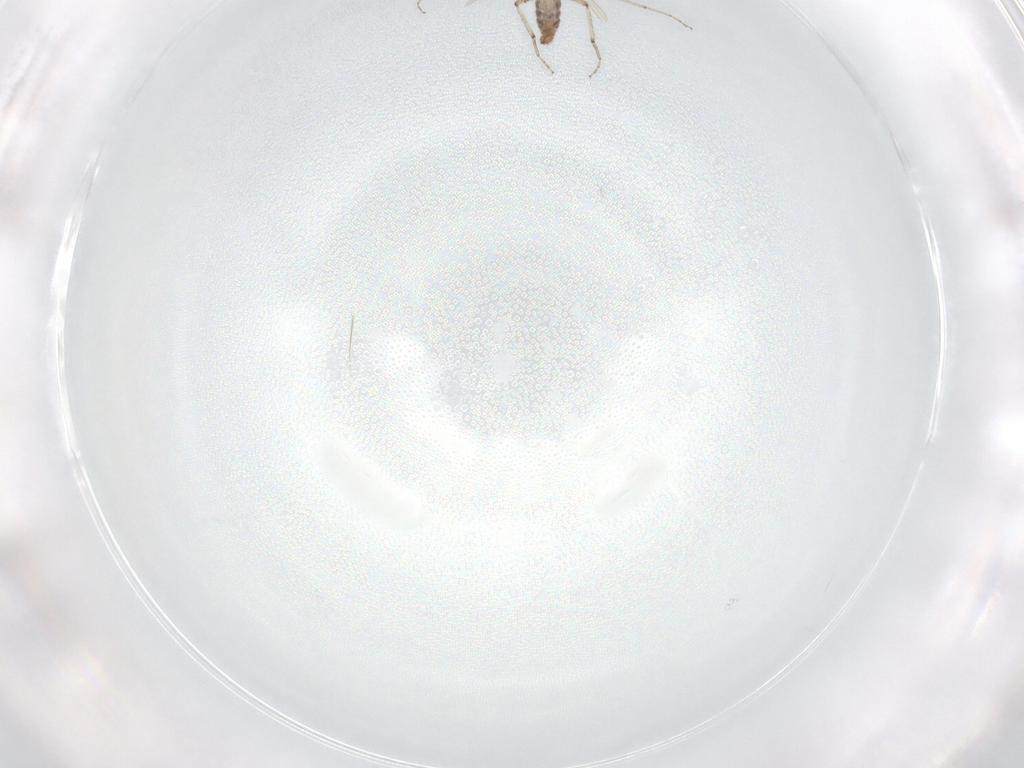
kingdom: Animalia
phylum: Arthropoda
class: Insecta
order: Diptera
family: Ceratopogonidae
